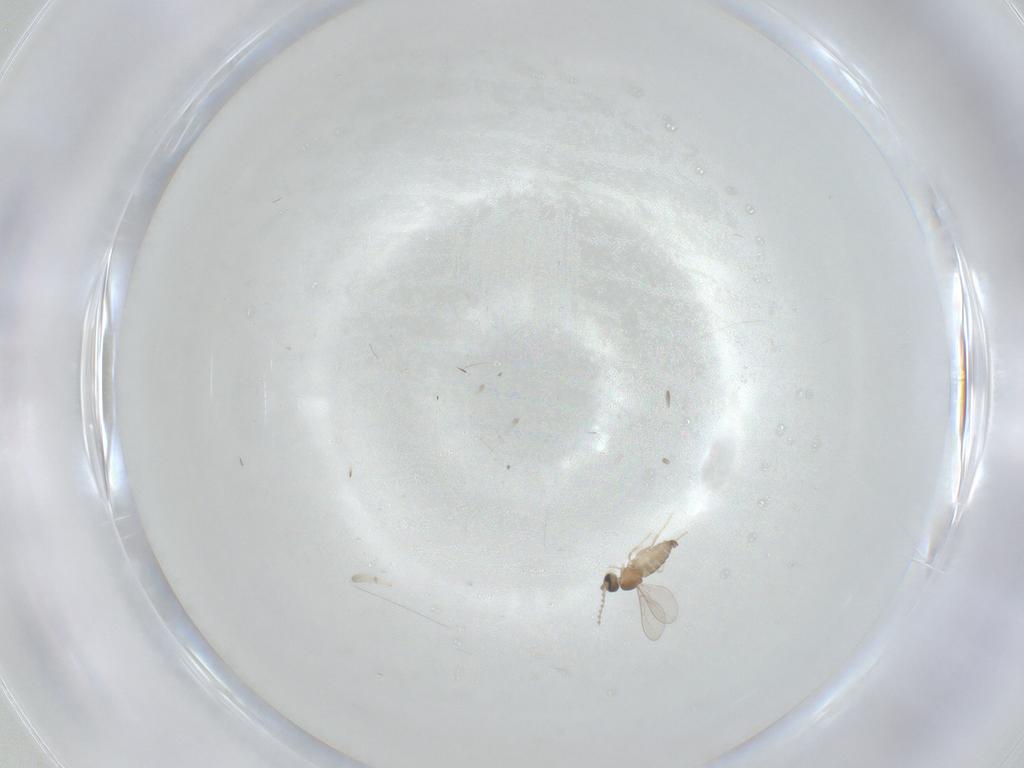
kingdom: Animalia
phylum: Arthropoda
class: Insecta
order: Diptera
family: Cecidomyiidae
